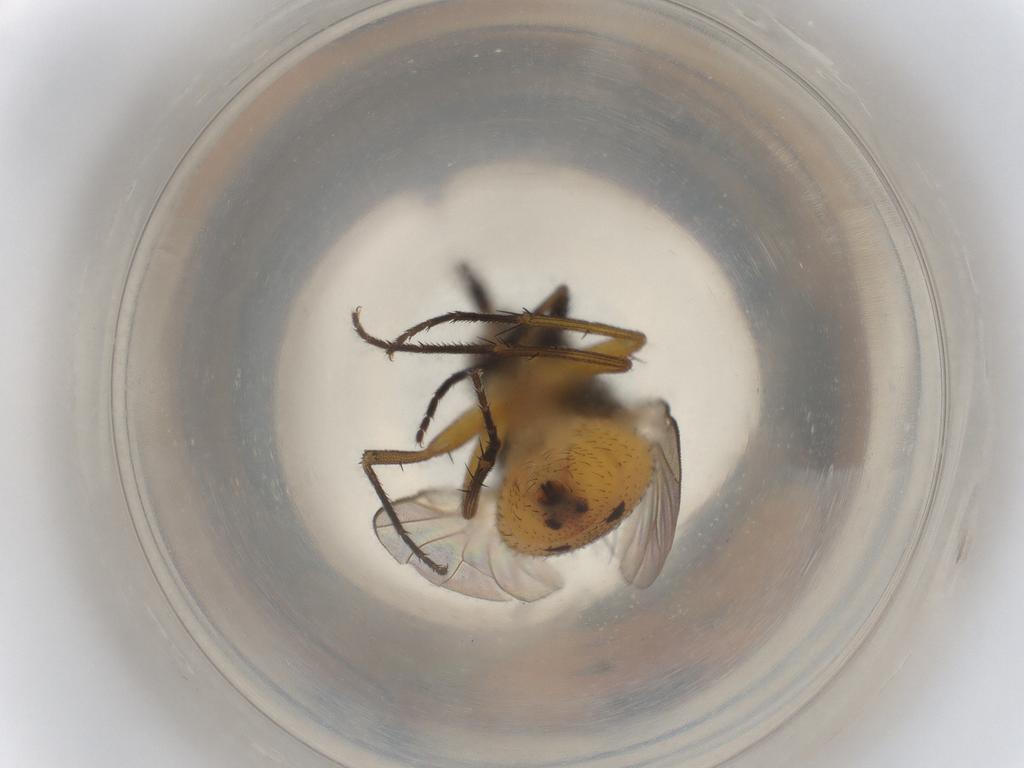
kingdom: Animalia
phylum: Arthropoda
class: Insecta
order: Diptera
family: Muscidae
